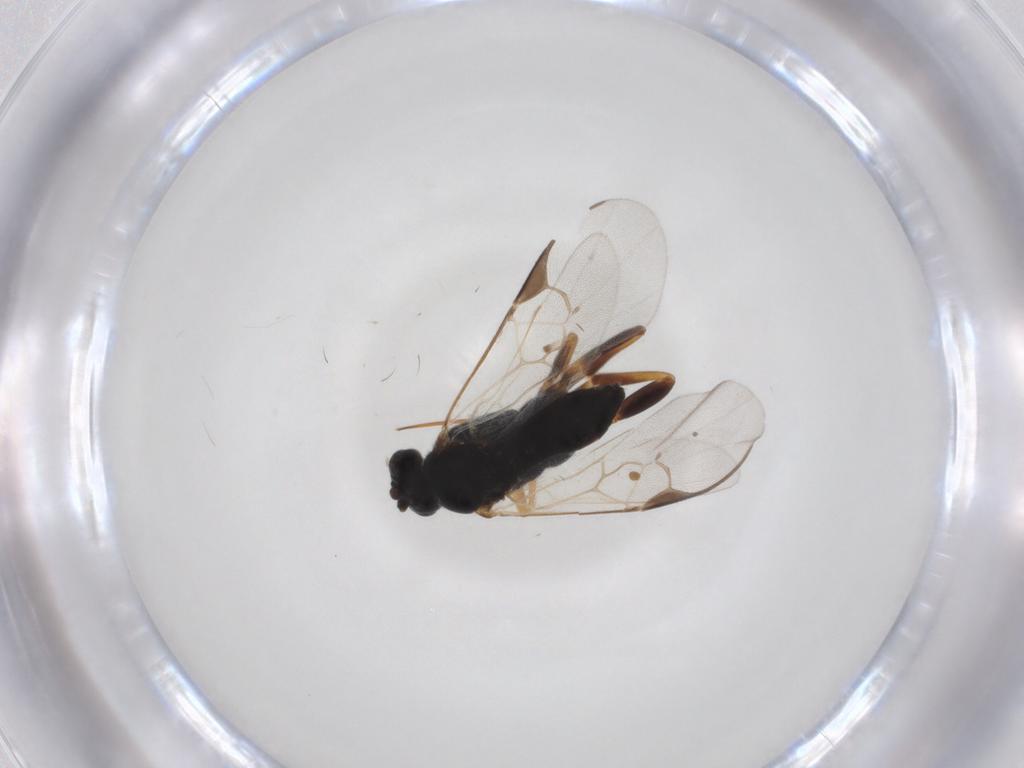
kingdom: Animalia
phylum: Arthropoda
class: Insecta
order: Hymenoptera
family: Braconidae
